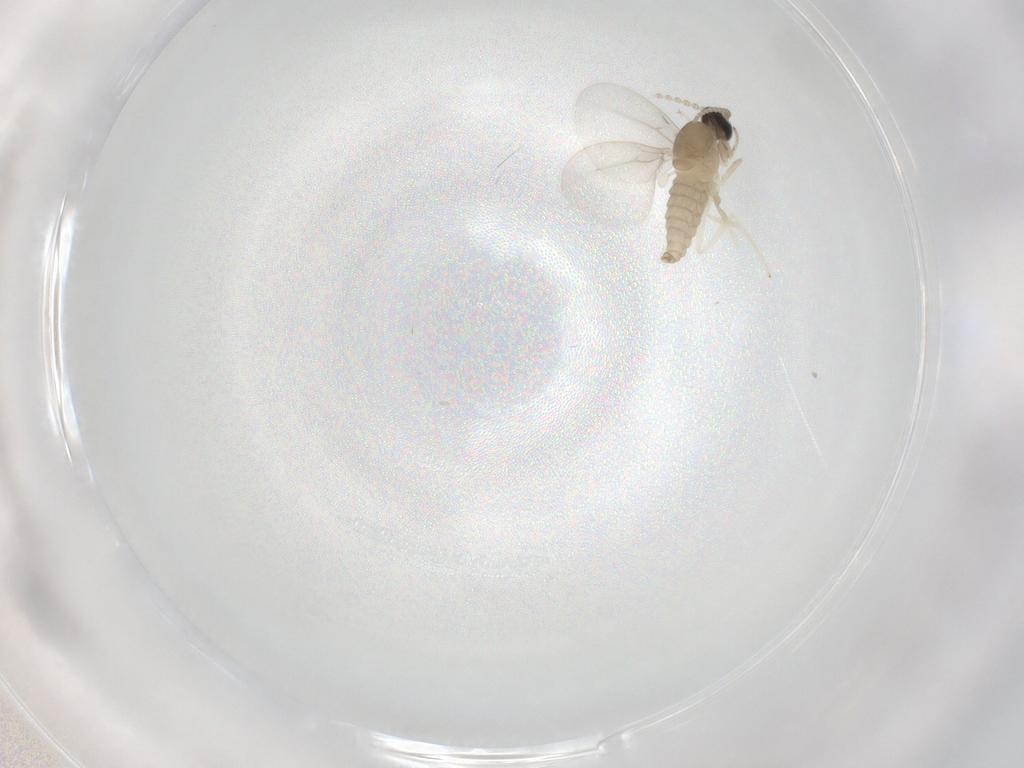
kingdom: Animalia
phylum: Arthropoda
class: Insecta
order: Diptera
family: Cecidomyiidae
